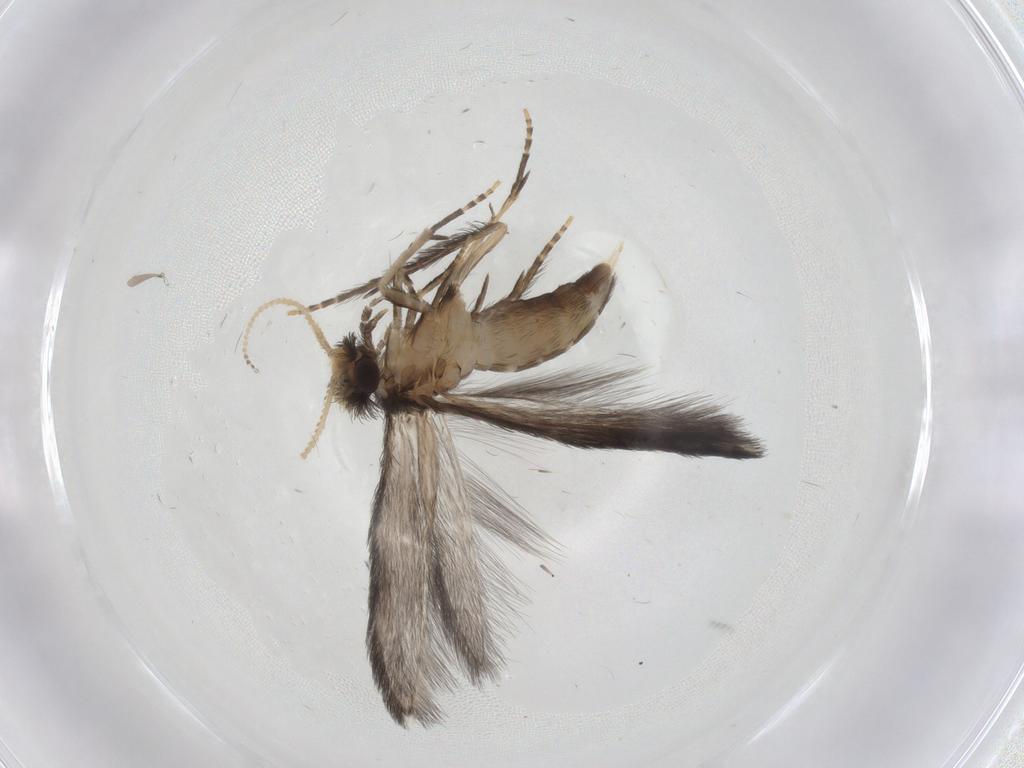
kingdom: Animalia
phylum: Arthropoda
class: Insecta
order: Trichoptera
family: Hydroptilidae
